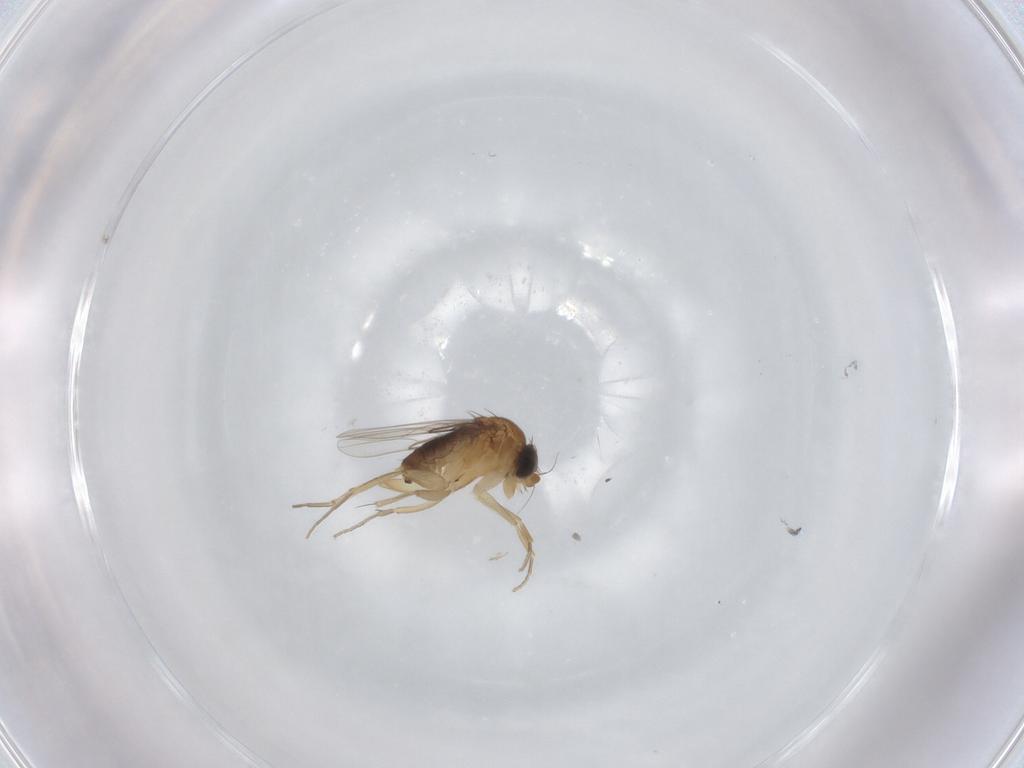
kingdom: Animalia
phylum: Arthropoda
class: Insecta
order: Diptera
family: Phoridae
